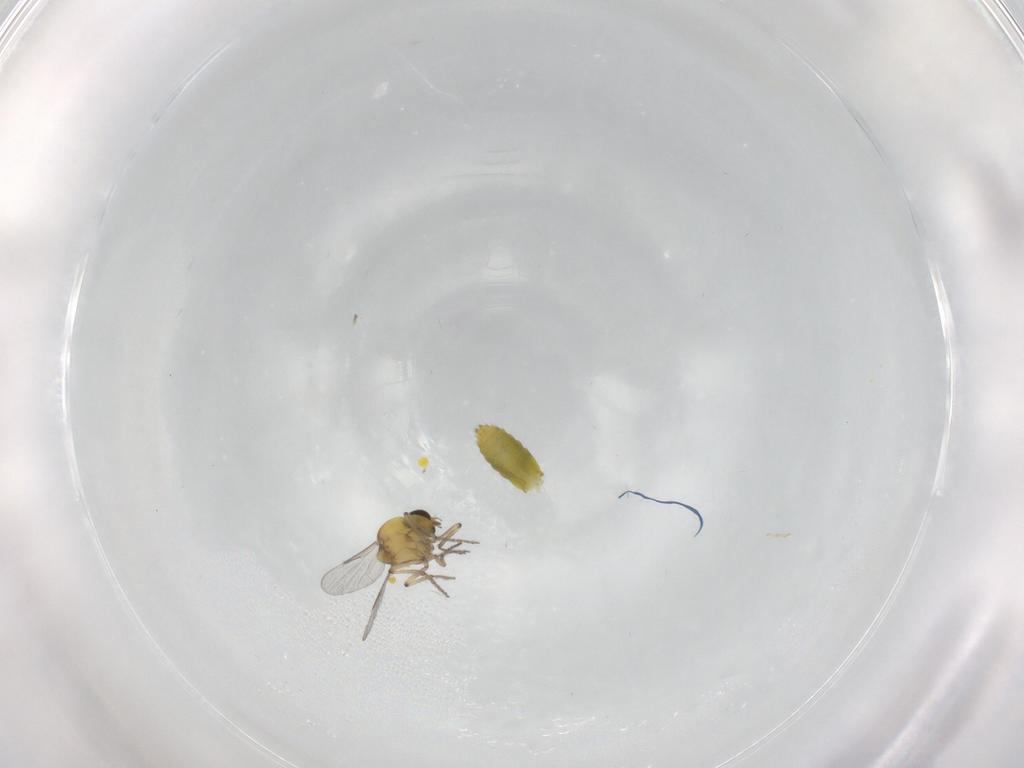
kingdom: Animalia
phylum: Arthropoda
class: Insecta
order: Diptera
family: Ceratopogonidae
